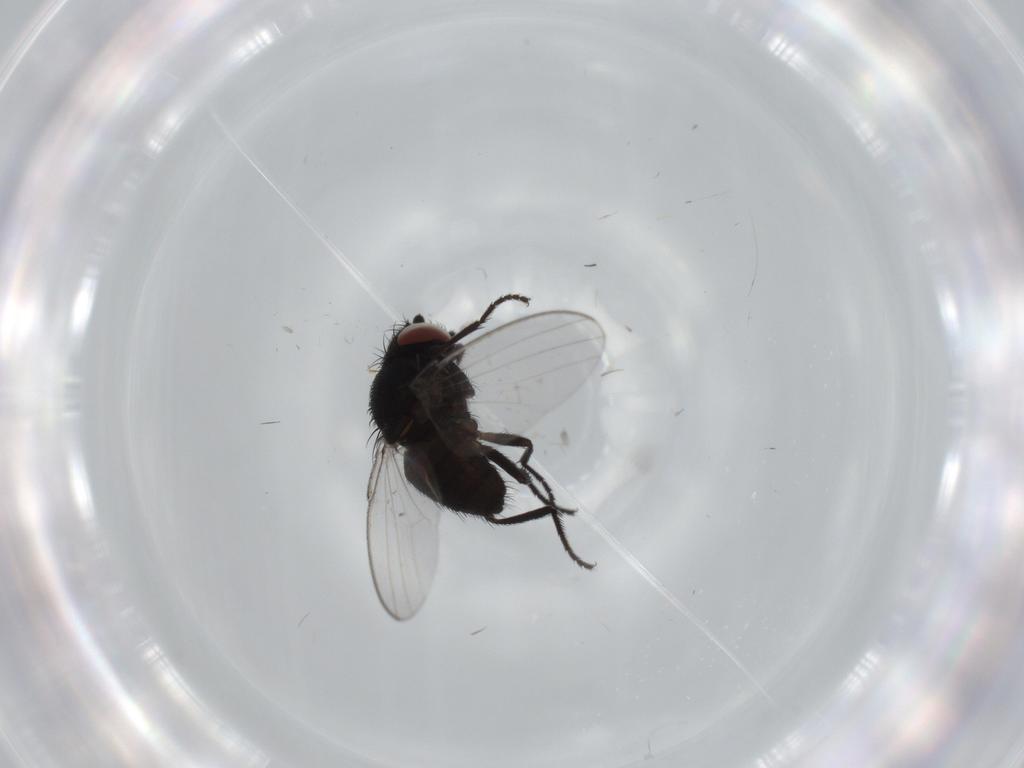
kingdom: Animalia
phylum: Arthropoda
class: Insecta
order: Diptera
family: Milichiidae
